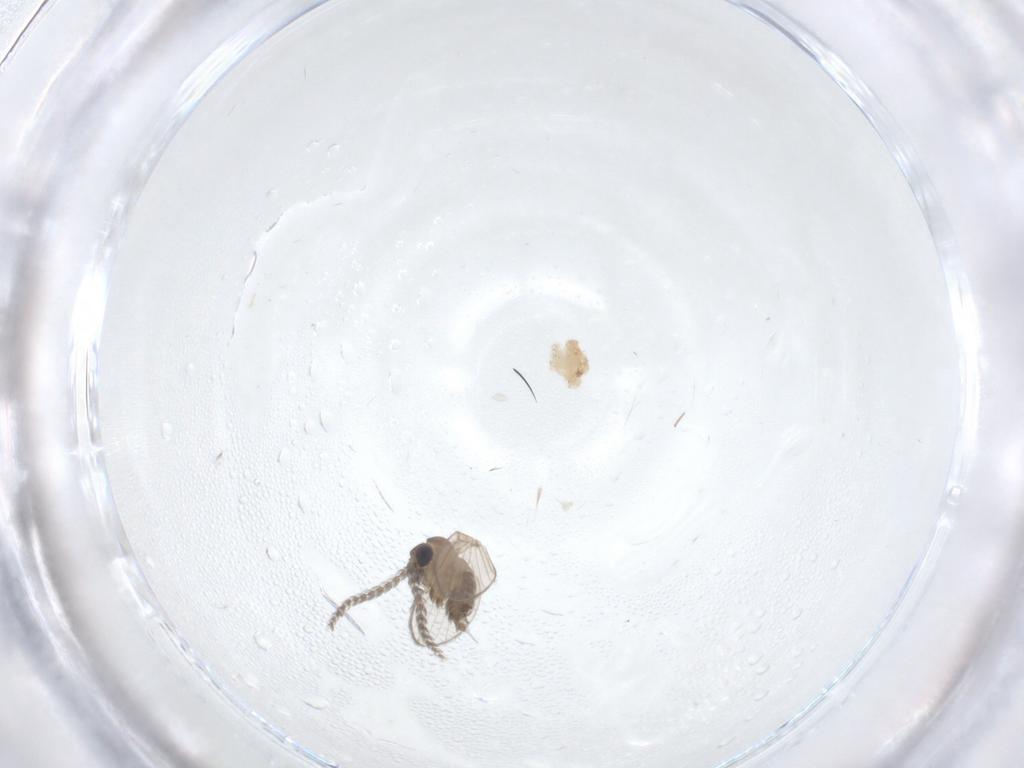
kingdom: Animalia
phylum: Arthropoda
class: Insecta
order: Diptera
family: Psychodidae
